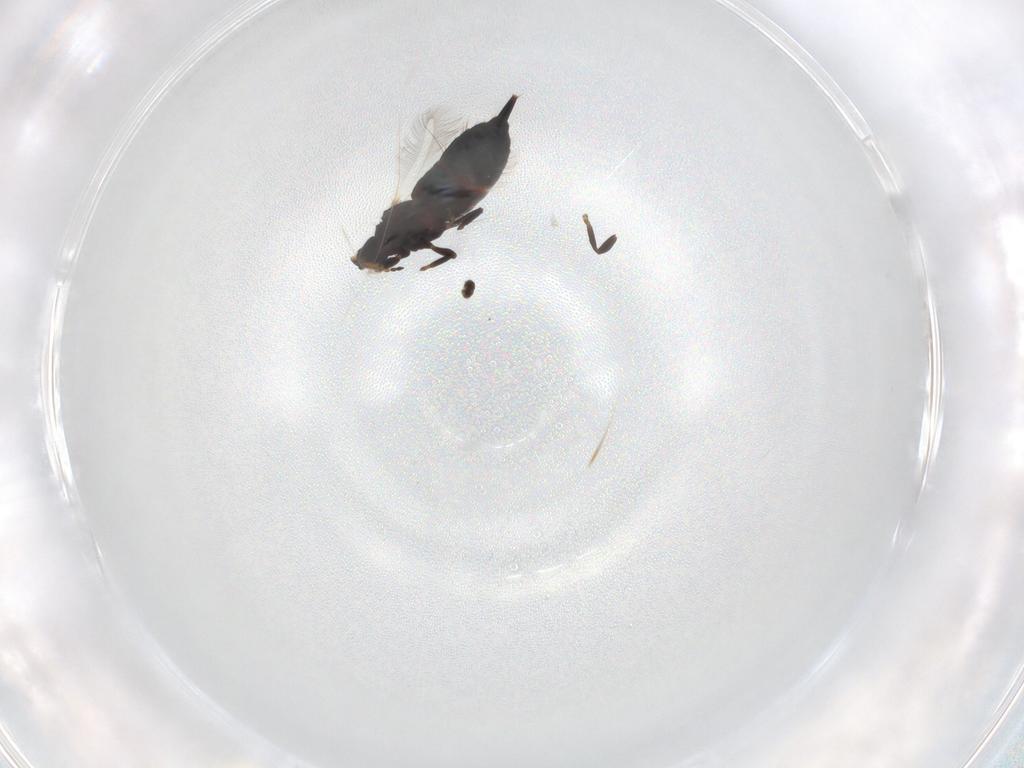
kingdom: Animalia
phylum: Arthropoda
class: Insecta
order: Thysanoptera
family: Phlaeothripidae
